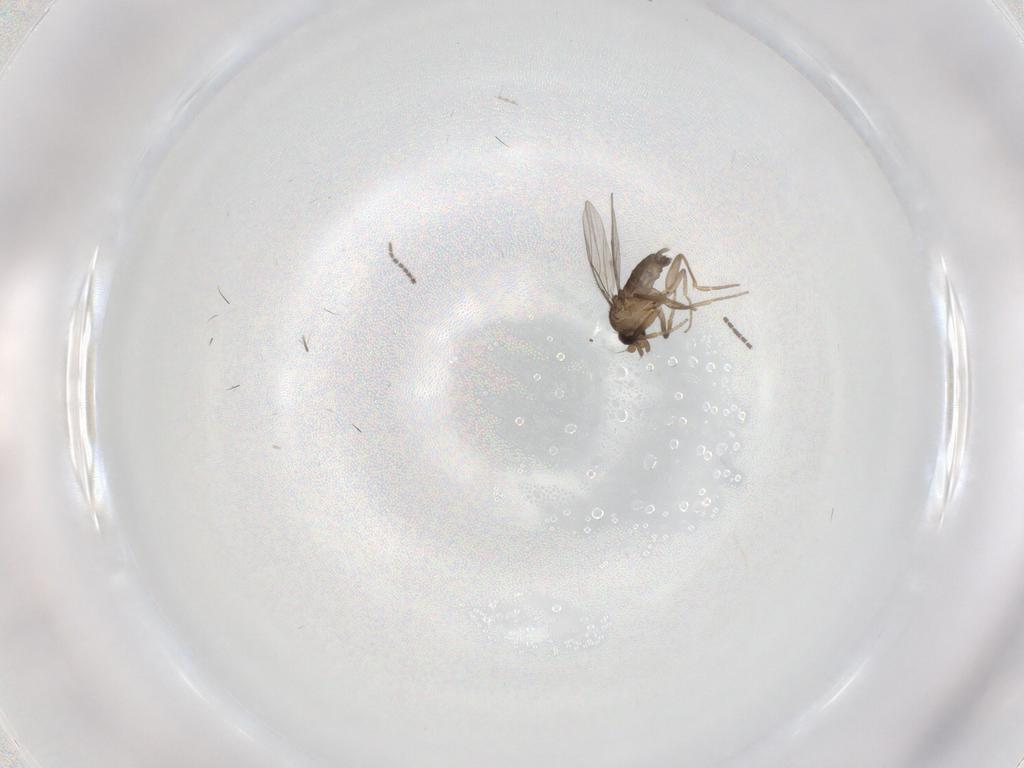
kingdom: Animalia
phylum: Arthropoda
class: Insecta
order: Diptera
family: Sciaridae
